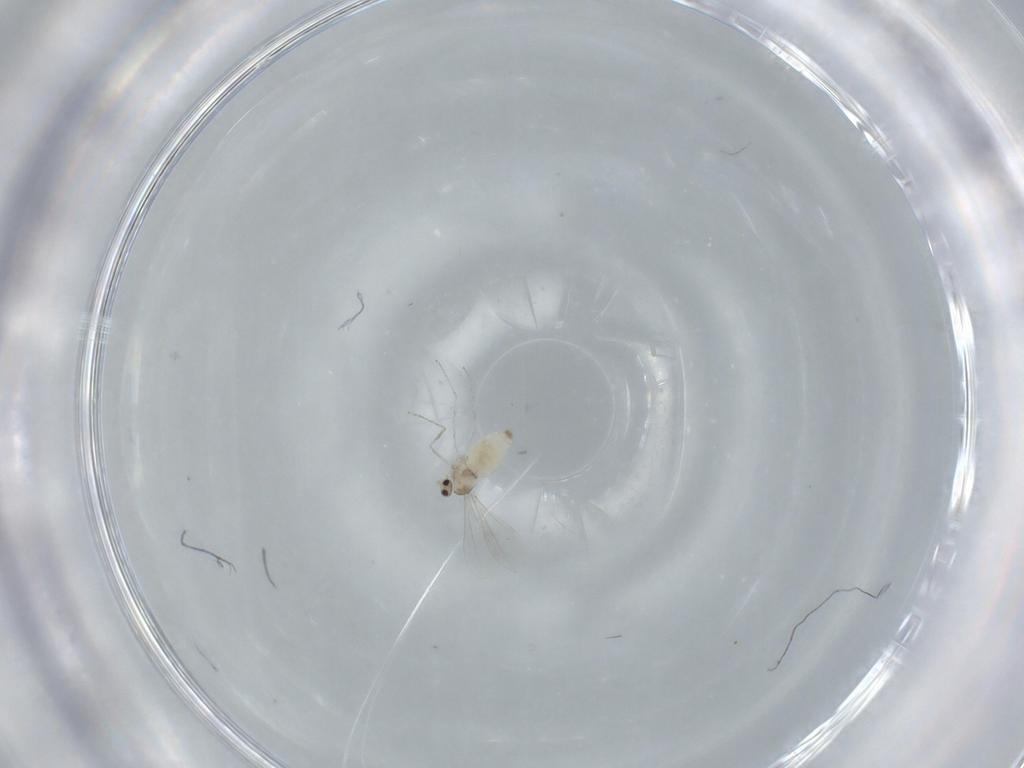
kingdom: Animalia
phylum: Arthropoda
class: Insecta
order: Diptera
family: Cecidomyiidae
